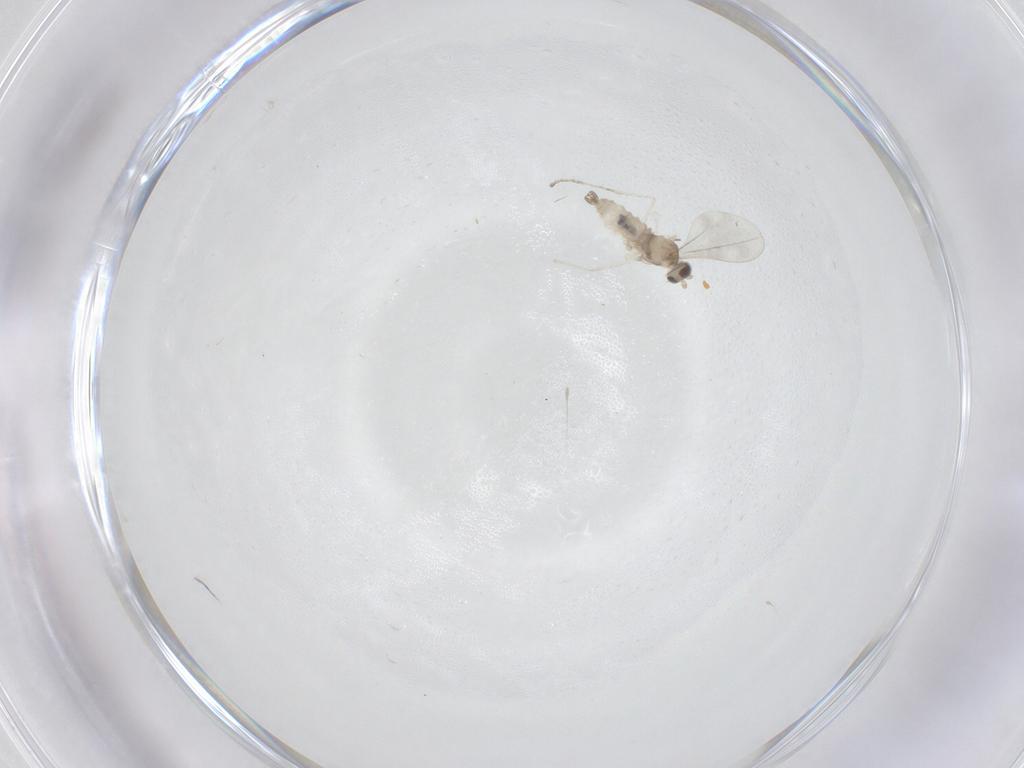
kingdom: Animalia
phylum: Arthropoda
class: Insecta
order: Diptera
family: Cecidomyiidae
